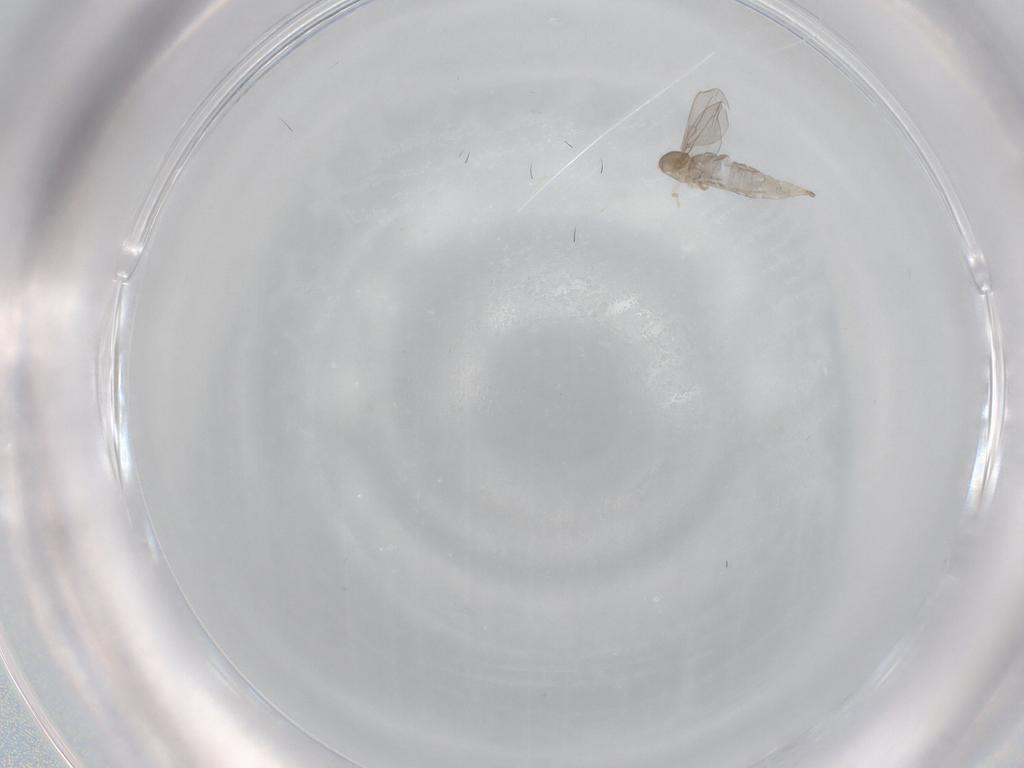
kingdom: Animalia
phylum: Arthropoda
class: Insecta
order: Diptera
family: Cecidomyiidae
